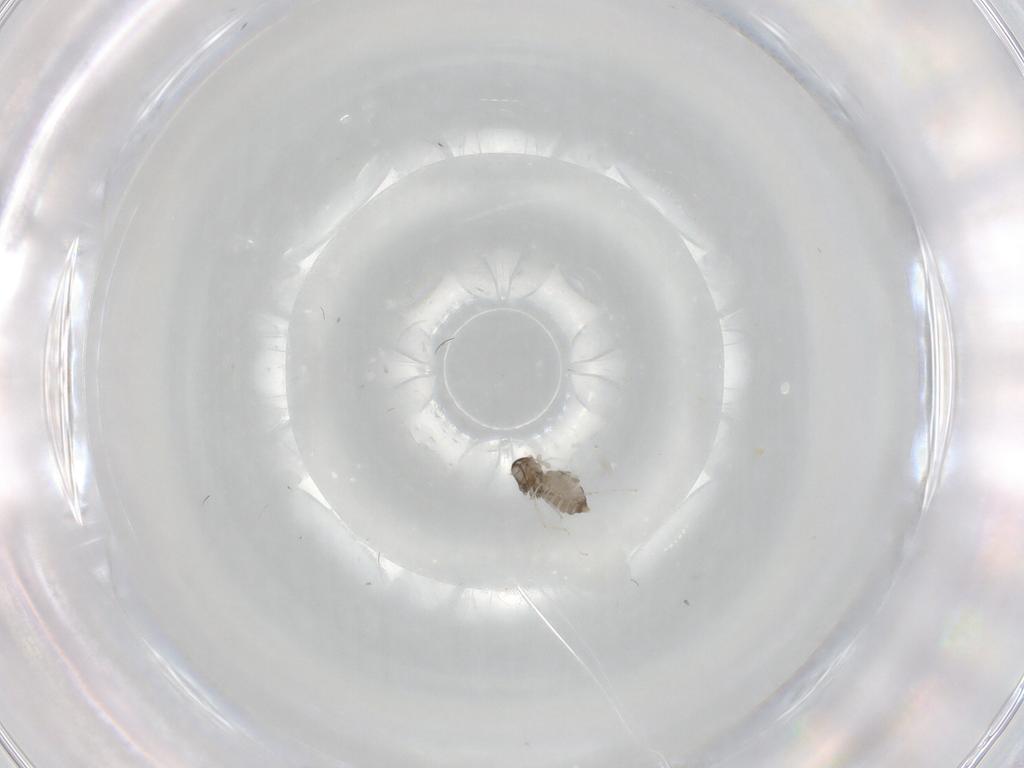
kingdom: Animalia
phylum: Arthropoda
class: Insecta
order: Diptera
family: Cecidomyiidae
